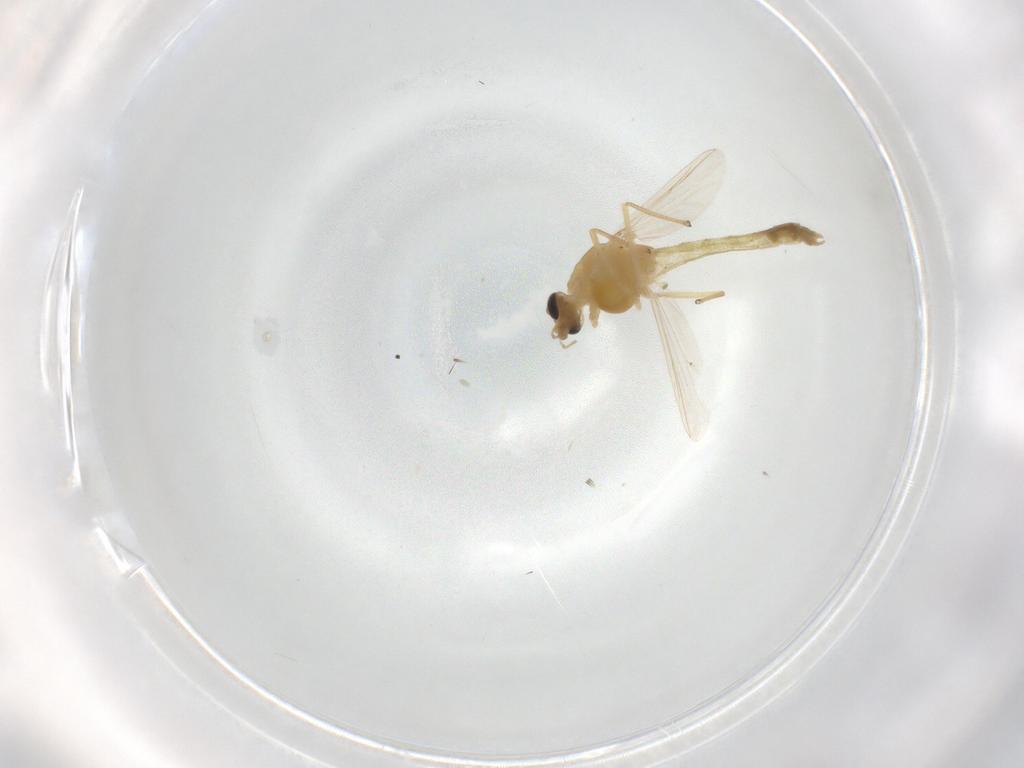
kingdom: Animalia
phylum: Arthropoda
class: Insecta
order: Diptera
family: Chironomidae
